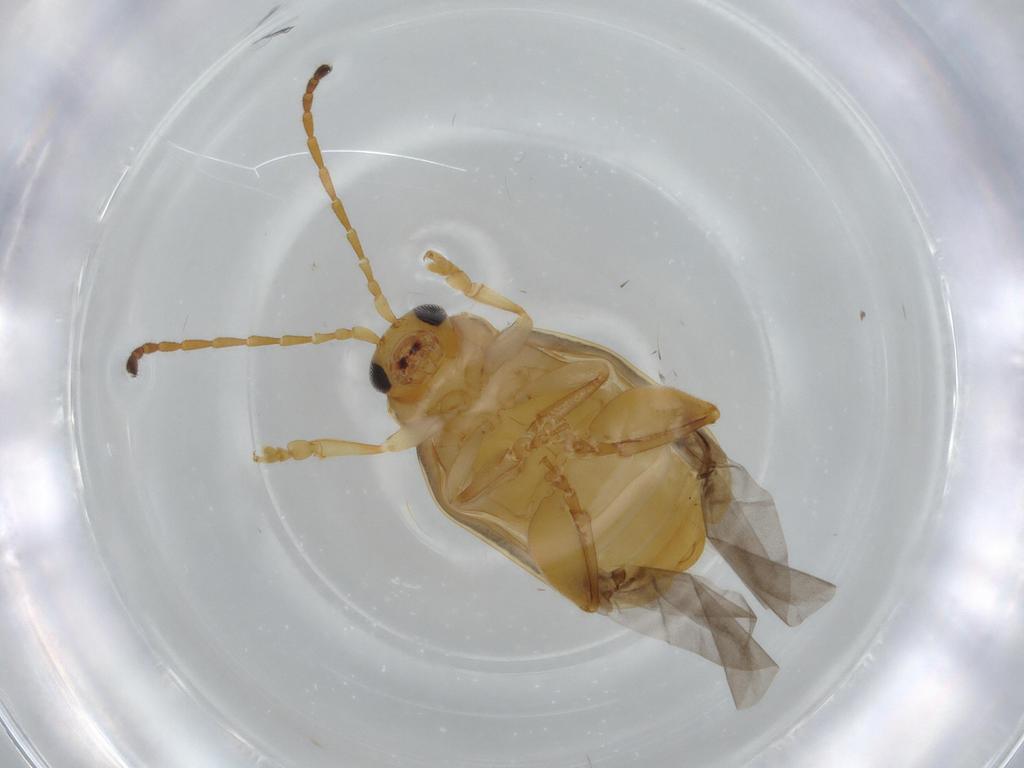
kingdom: Animalia
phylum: Arthropoda
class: Insecta
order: Coleoptera
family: Chrysomelidae
